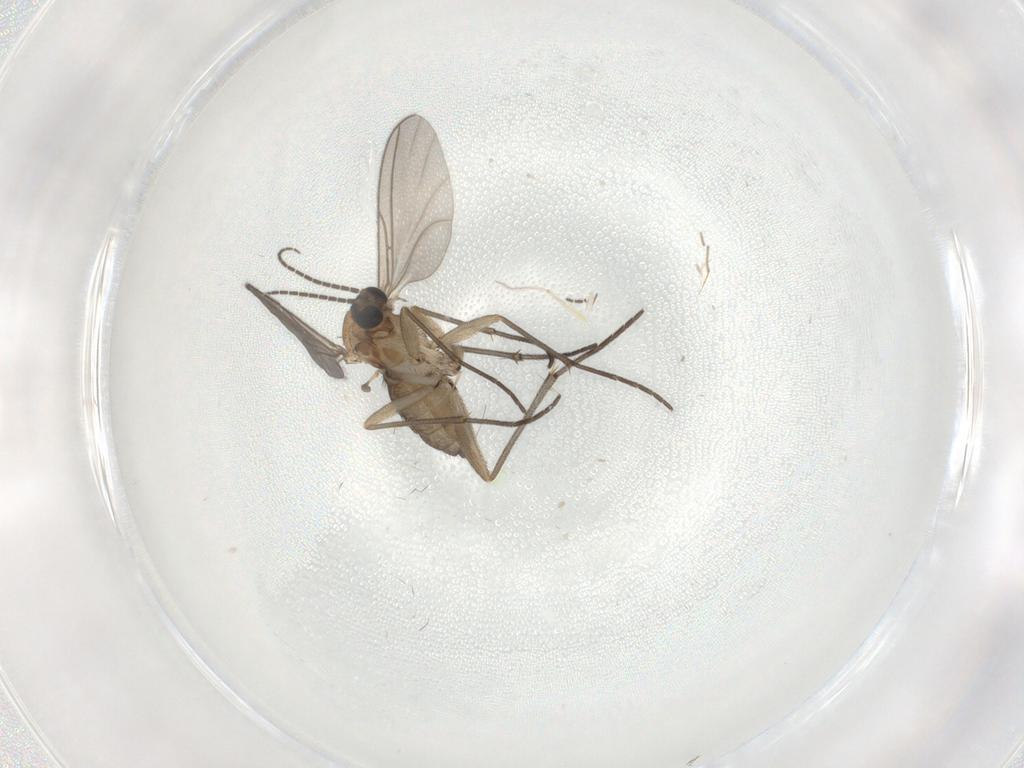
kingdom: Animalia
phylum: Arthropoda
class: Insecta
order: Diptera
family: Sciaridae
